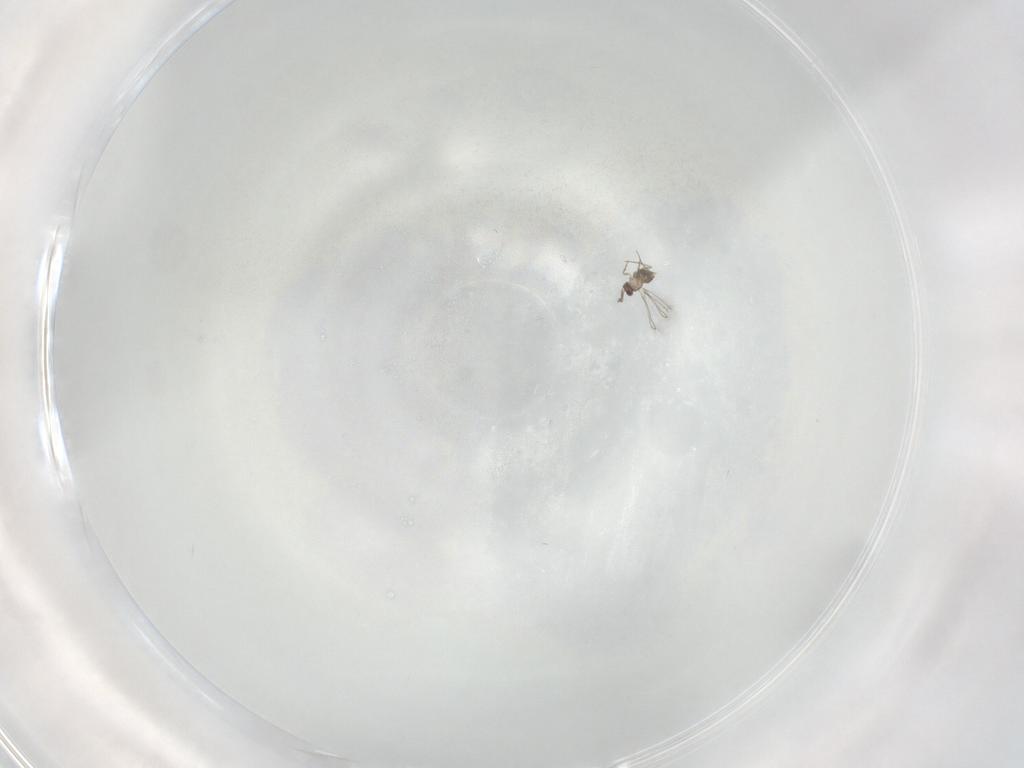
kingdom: Animalia
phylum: Arthropoda
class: Insecta
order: Hymenoptera
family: Mymaridae
